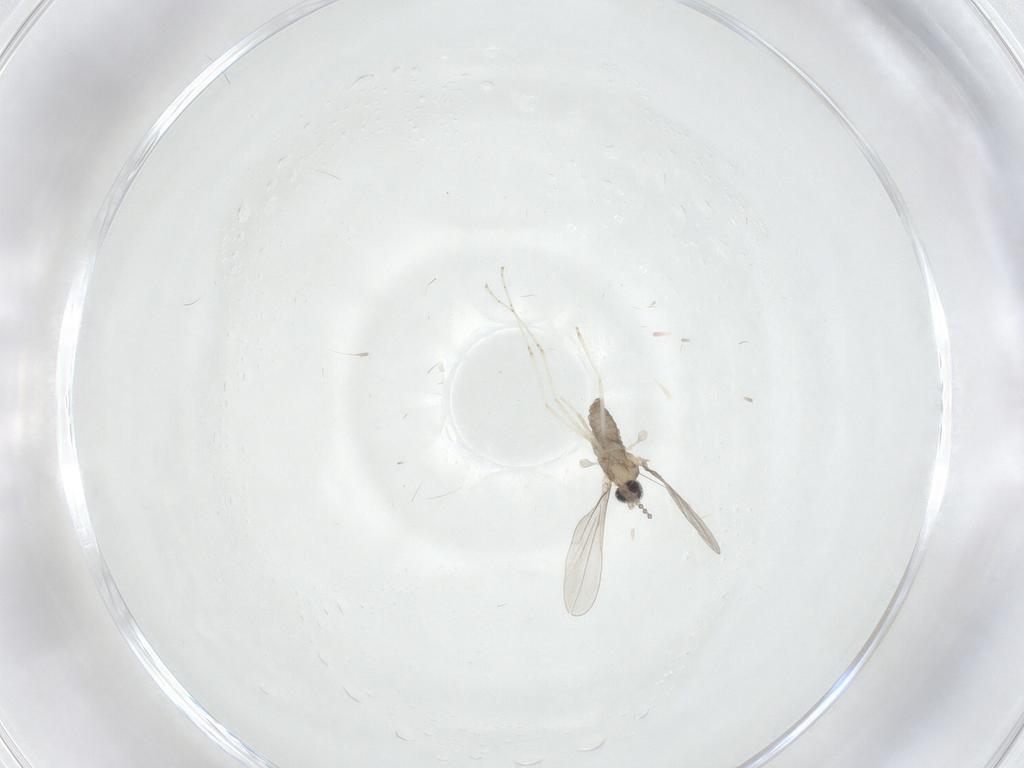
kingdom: Animalia
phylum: Arthropoda
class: Insecta
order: Diptera
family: Cecidomyiidae
